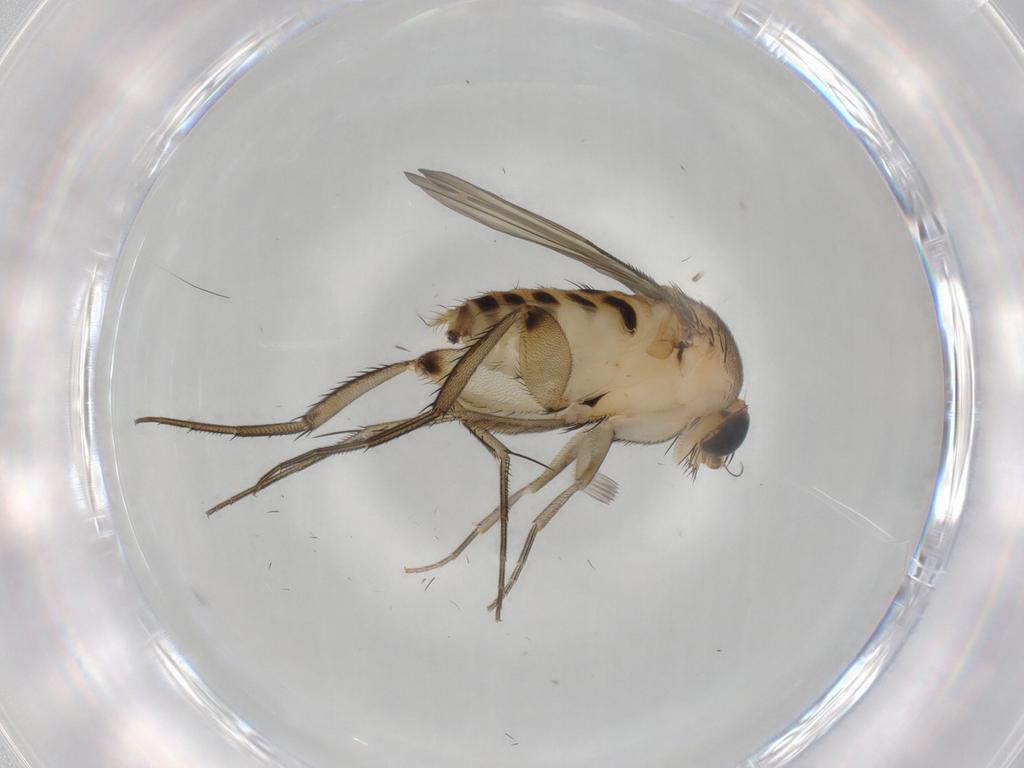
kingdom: Animalia
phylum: Arthropoda
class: Insecta
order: Diptera
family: Phoridae
